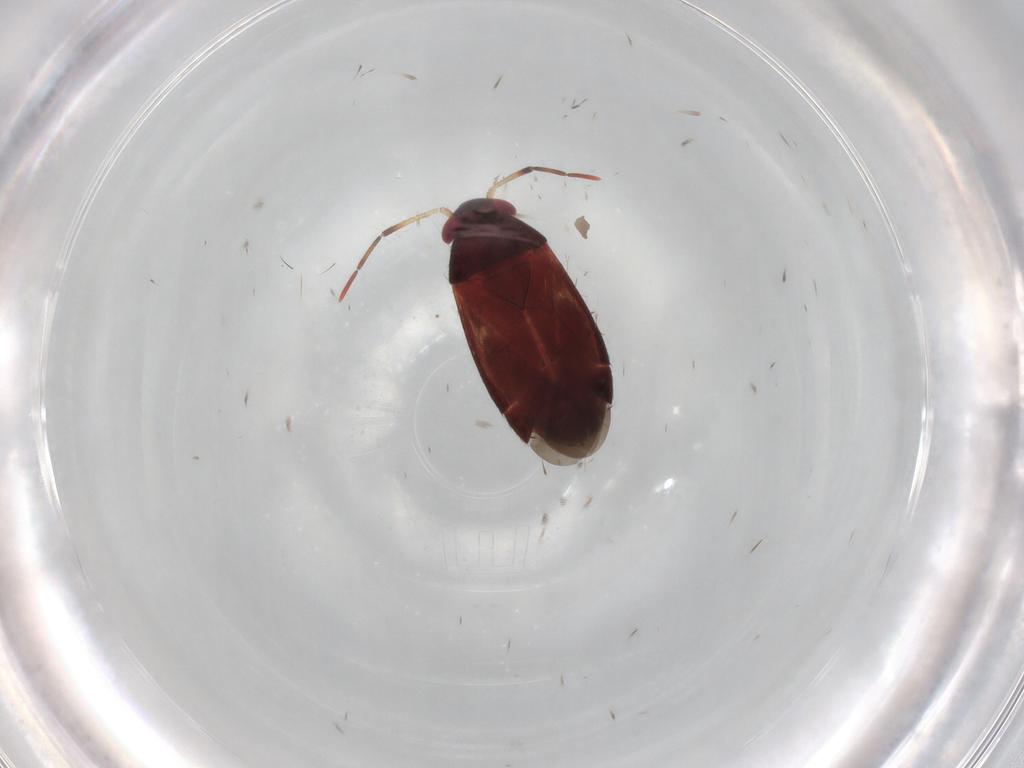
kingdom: Animalia
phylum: Arthropoda
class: Insecta
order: Hemiptera
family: Miridae
